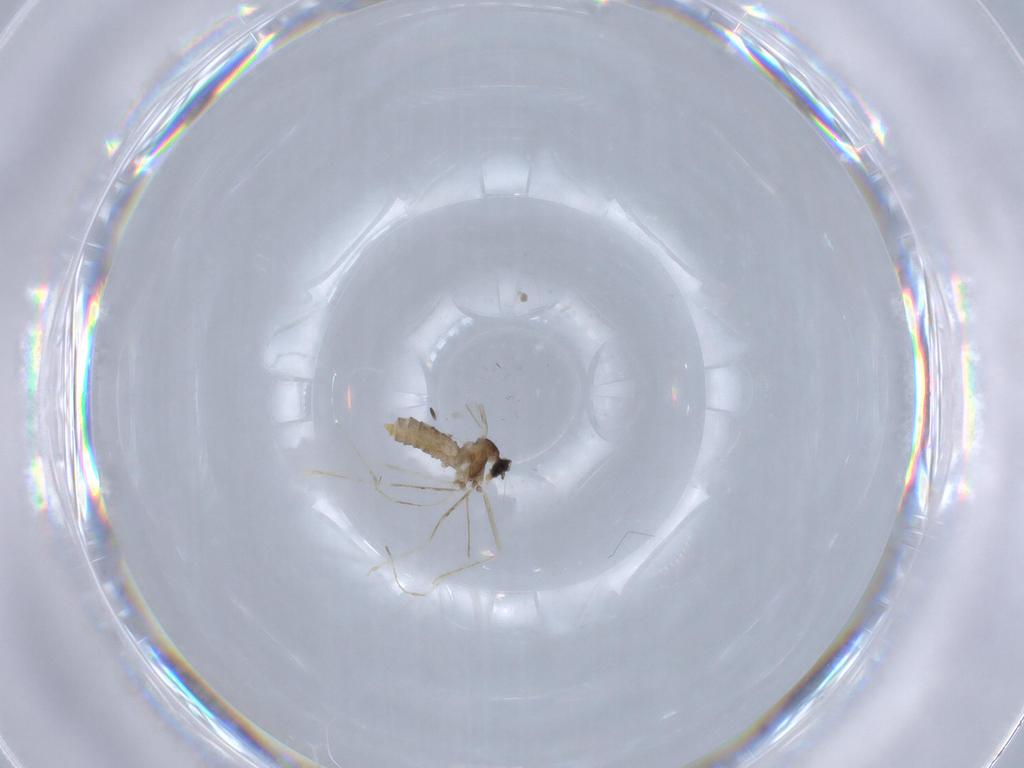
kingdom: Animalia
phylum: Arthropoda
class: Insecta
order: Diptera
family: Cecidomyiidae
